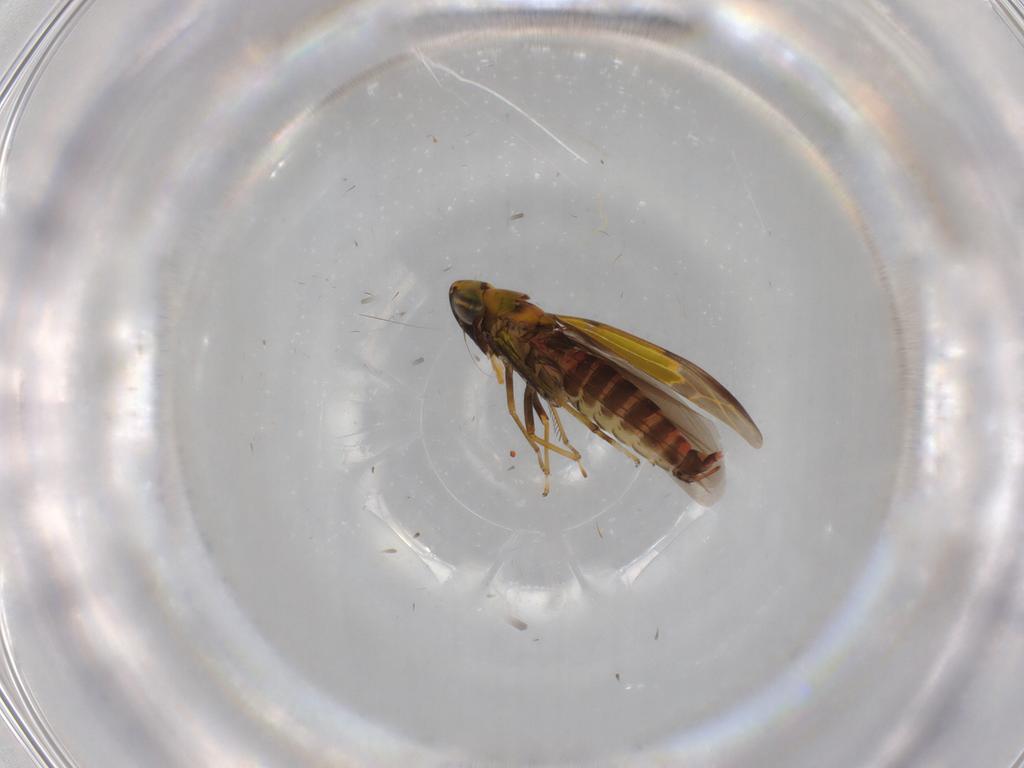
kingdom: Animalia
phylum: Arthropoda
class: Insecta
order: Hemiptera
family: Cicadellidae
